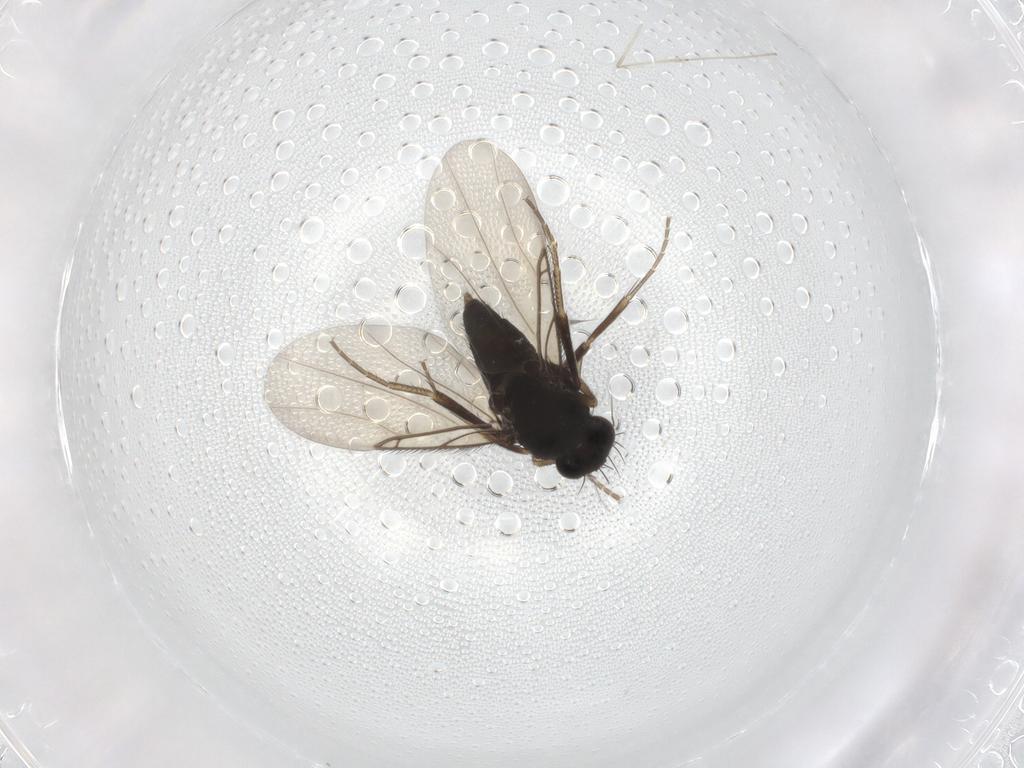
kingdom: Animalia
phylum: Arthropoda
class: Insecta
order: Diptera
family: Phoridae
